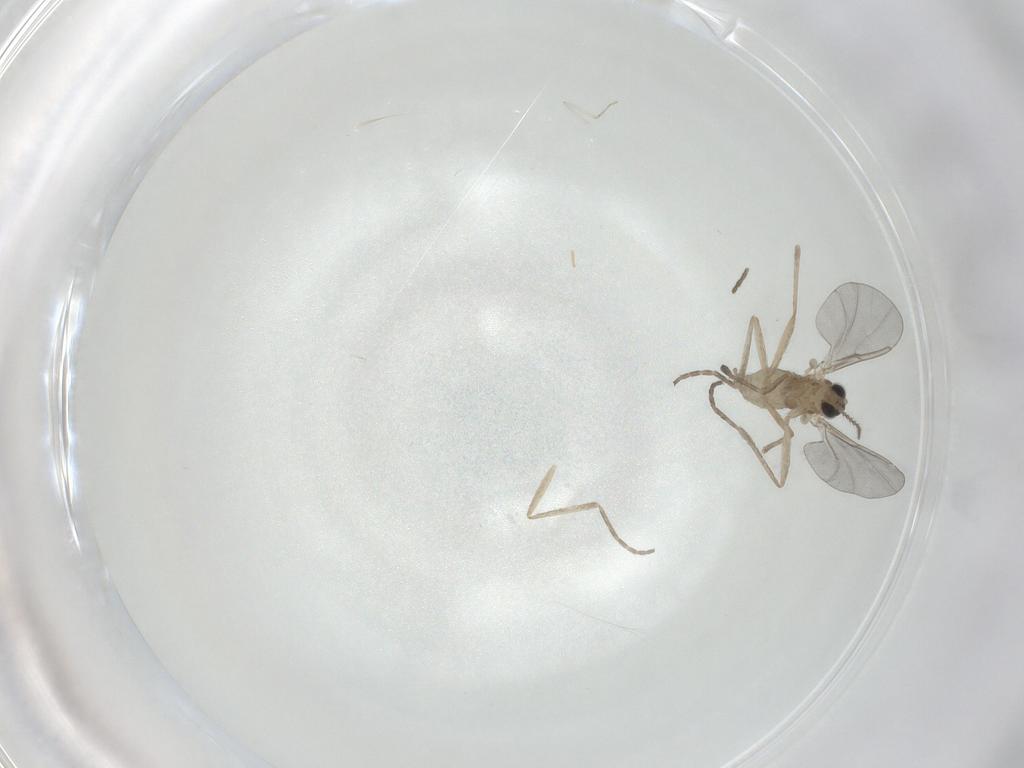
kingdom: Animalia
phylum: Arthropoda
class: Insecta
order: Diptera
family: Cecidomyiidae
